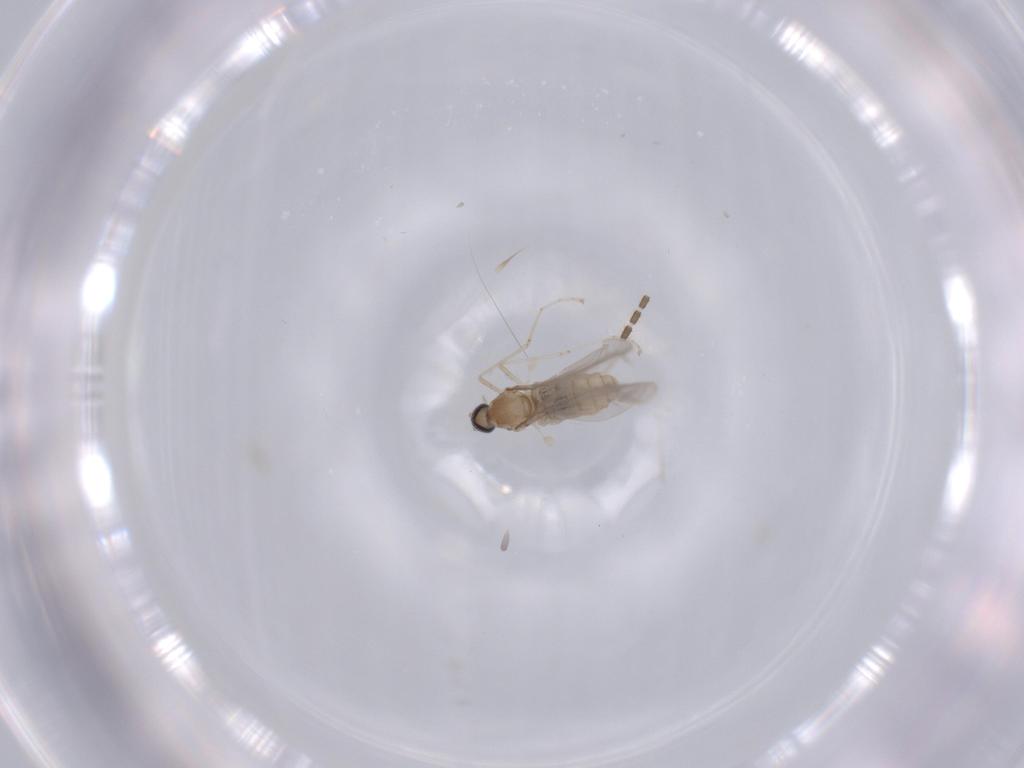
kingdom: Animalia
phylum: Arthropoda
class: Insecta
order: Diptera
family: Cecidomyiidae
